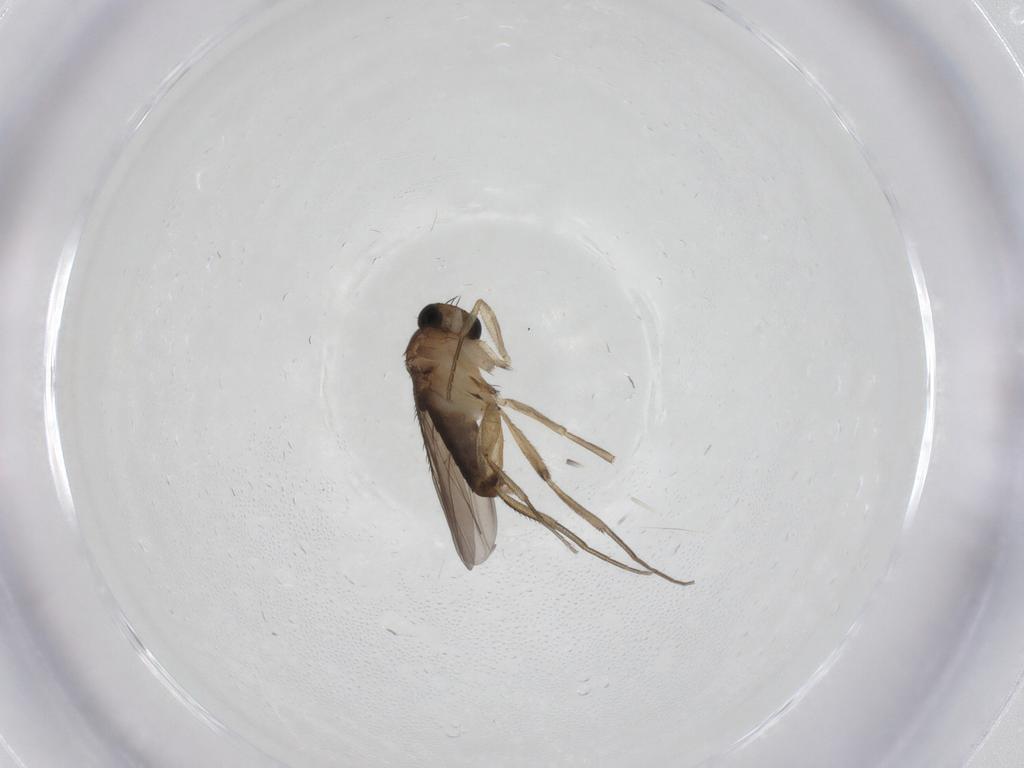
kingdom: Animalia
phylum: Arthropoda
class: Insecta
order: Diptera
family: Phoridae
